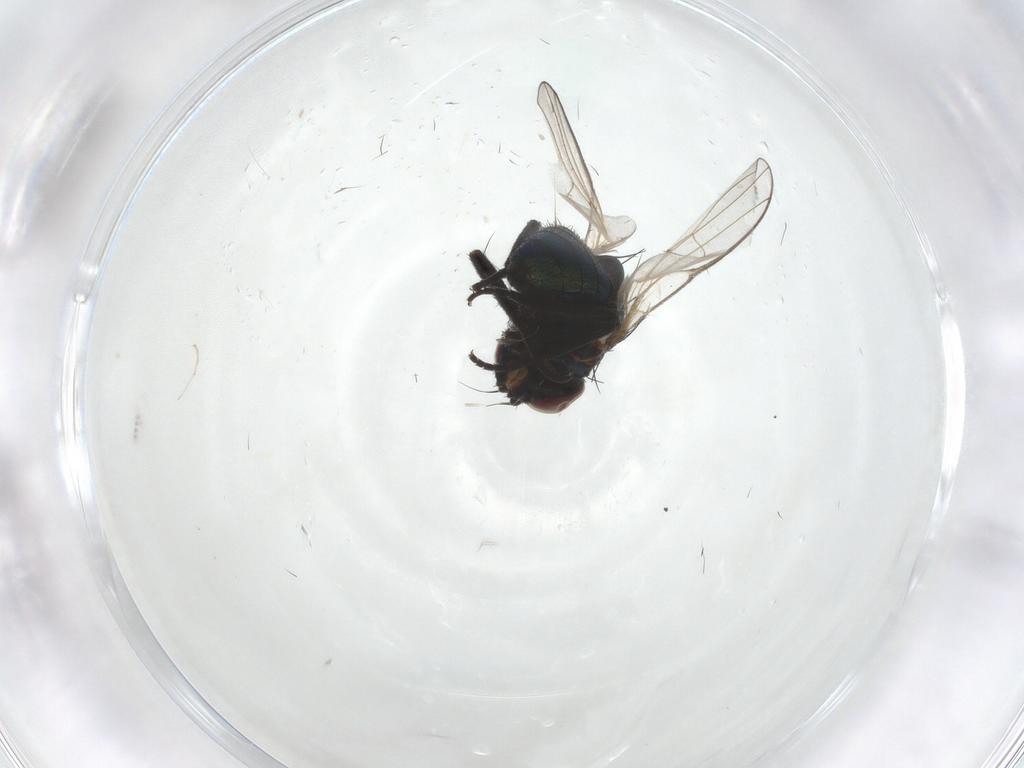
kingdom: Animalia
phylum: Arthropoda
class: Insecta
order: Diptera
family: Agromyzidae
